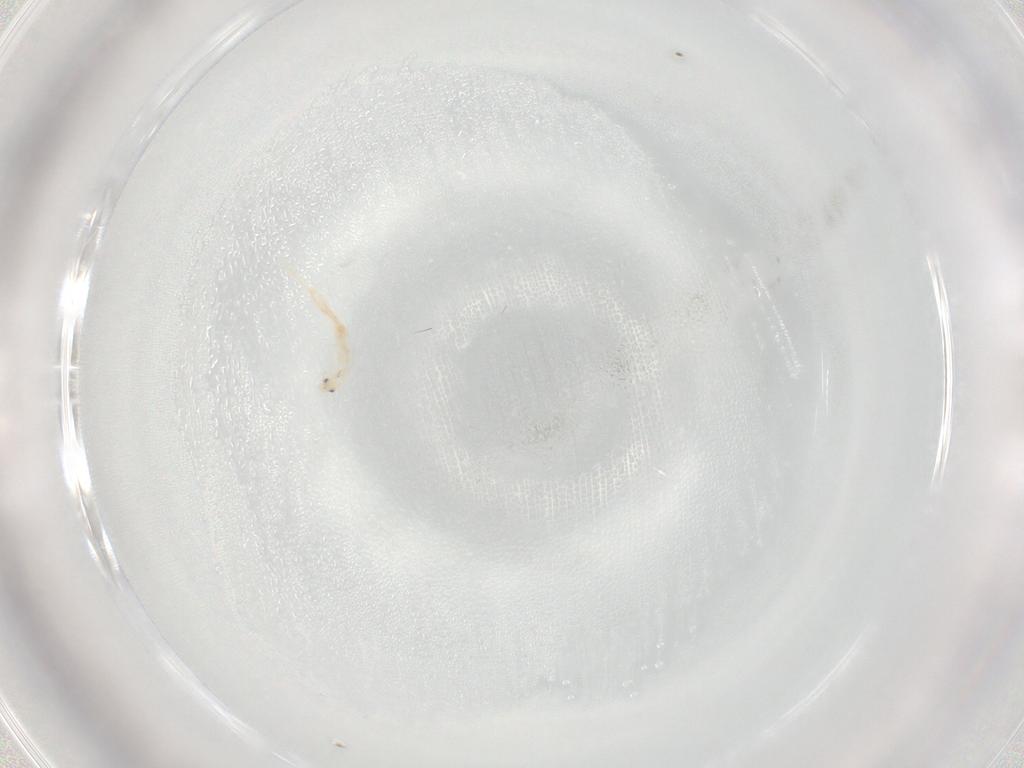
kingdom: Animalia
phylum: Arthropoda
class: Collembola
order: Entomobryomorpha
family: Entomobryidae
